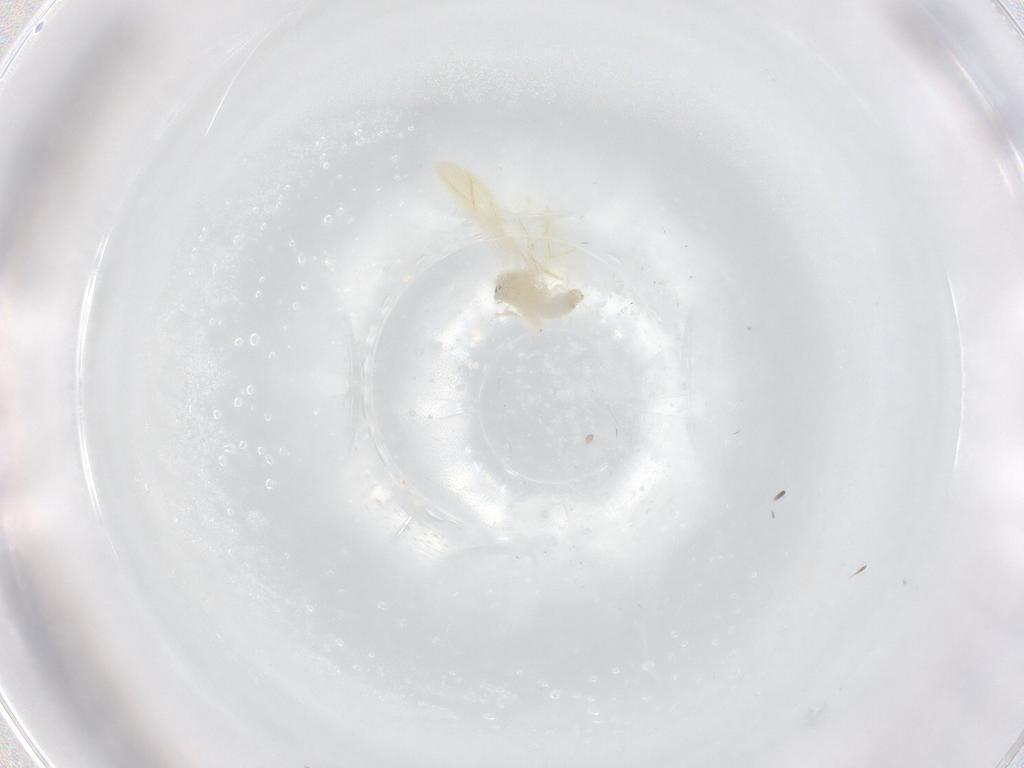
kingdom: Animalia
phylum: Arthropoda
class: Insecta
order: Hemiptera
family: Aleyrodidae
